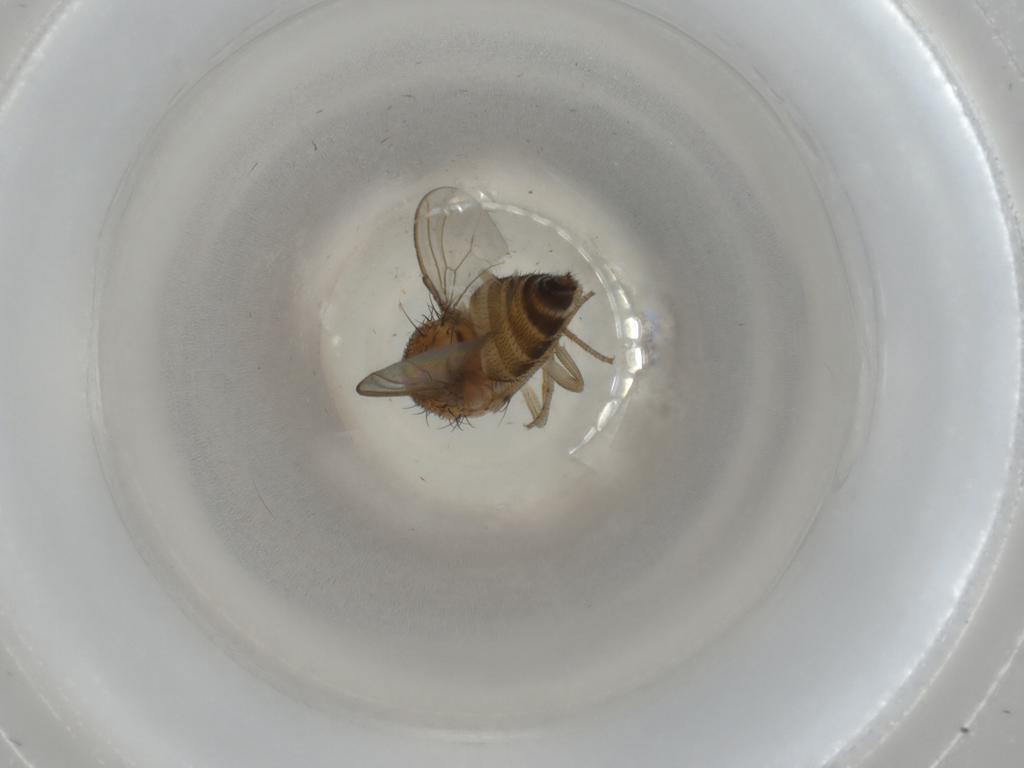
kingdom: Animalia
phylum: Arthropoda
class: Insecta
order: Diptera
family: Drosophilidae
